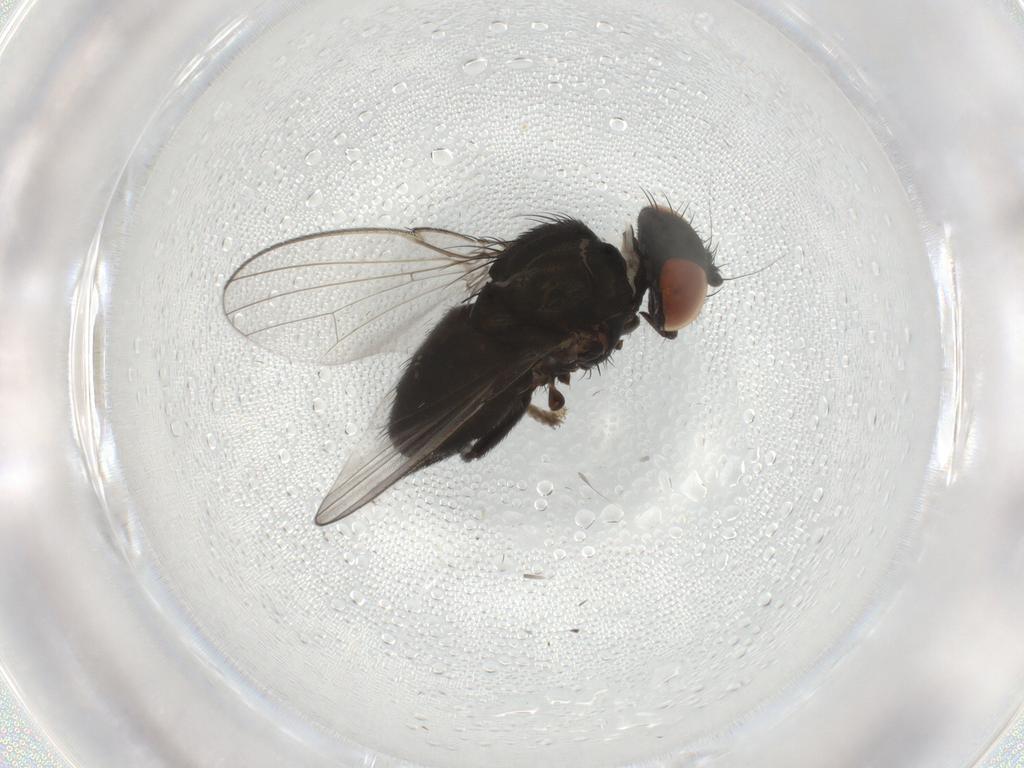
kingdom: Animalia
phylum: Arthropoda
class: Insecta
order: Diptera
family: Milichiidae
